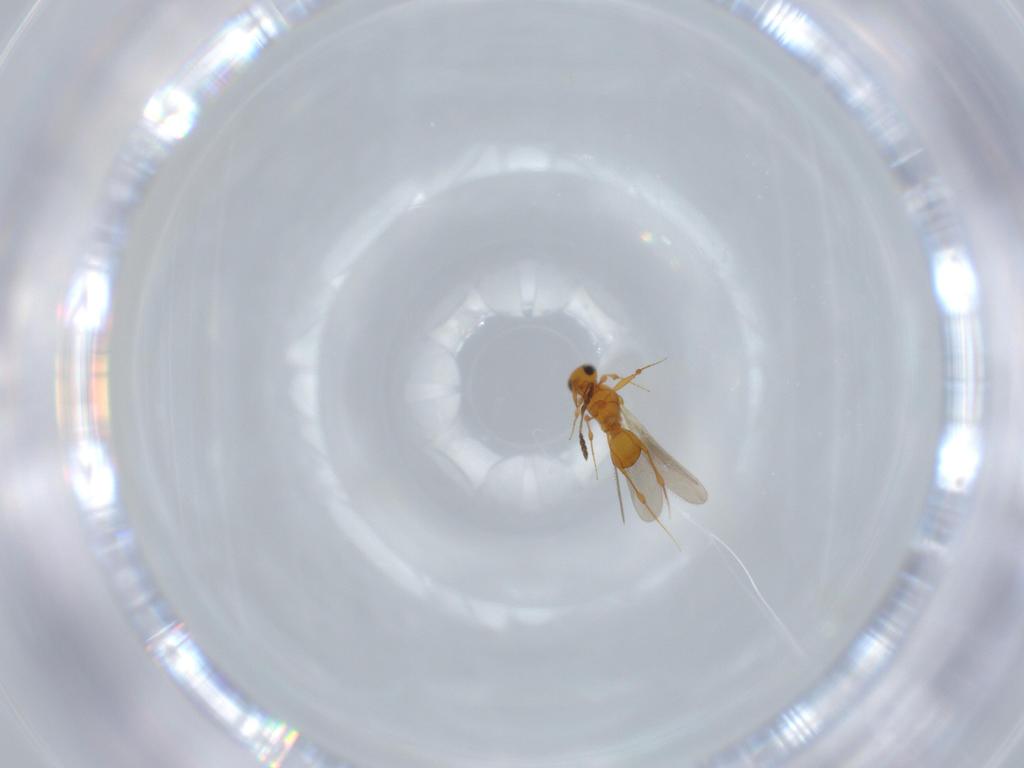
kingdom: Animalia
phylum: Arthropoda
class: Insecta
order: Hymenoptera
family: Platygastridae
